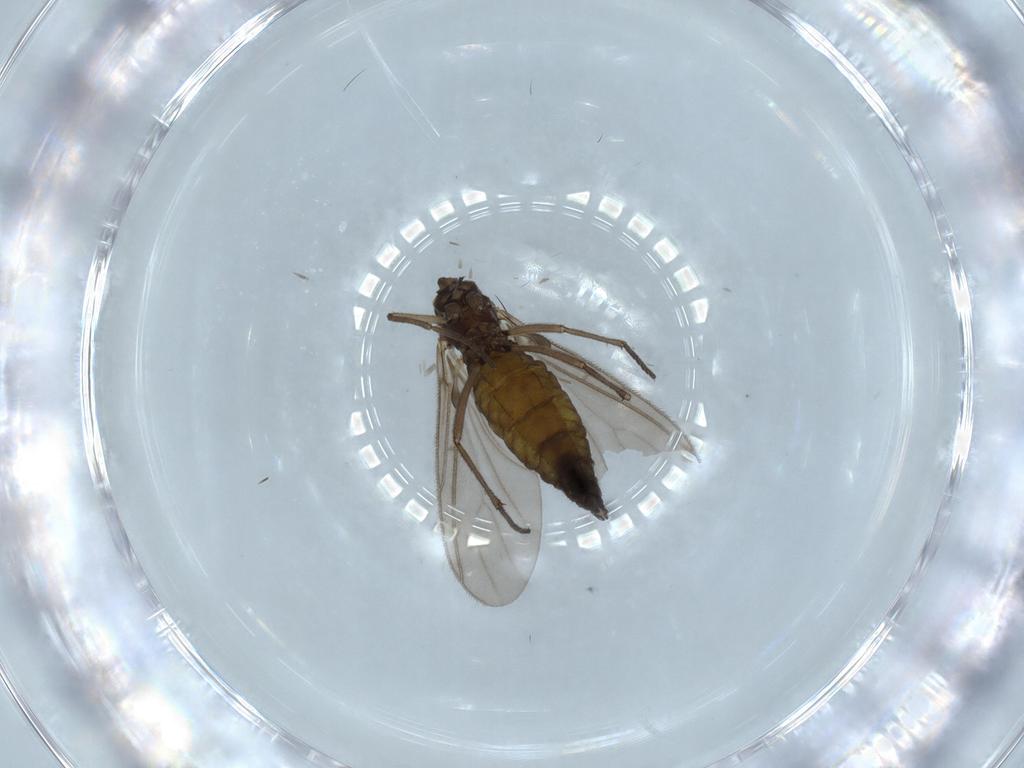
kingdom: Animalia
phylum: Arthropoda
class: Insecta
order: Diptera
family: Sciaridae
